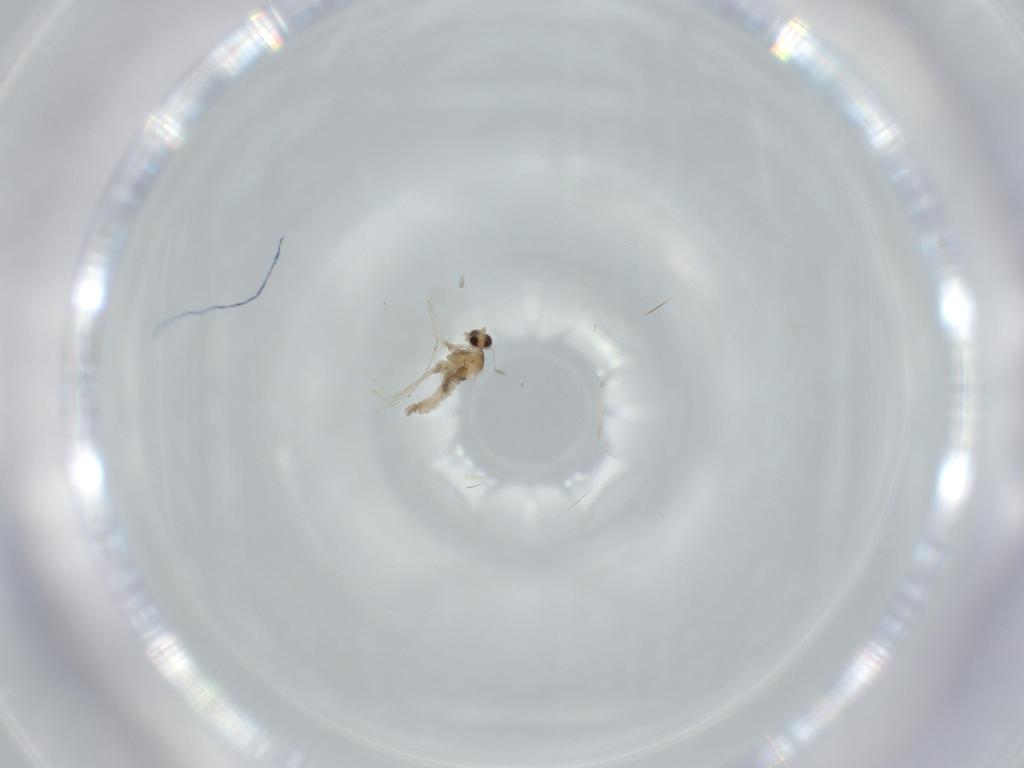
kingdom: Animalia
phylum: Arthropoda
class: Insecta
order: Diptera
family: Cecidomyiidae
